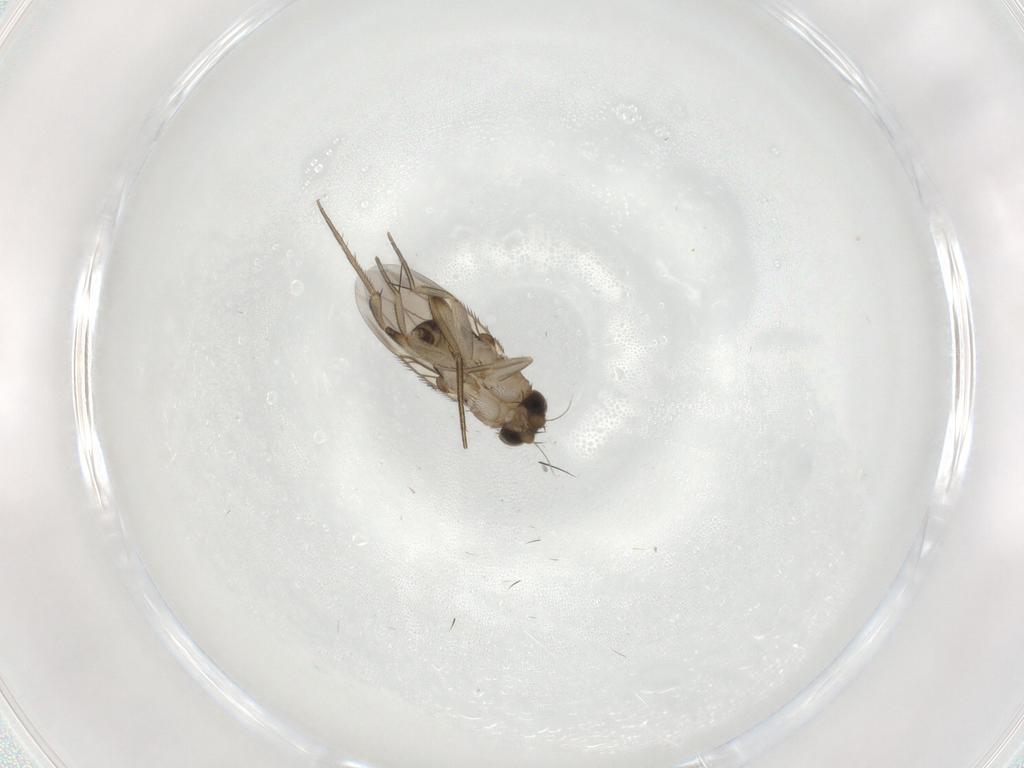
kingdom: Animalia
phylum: Arthropoda
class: Insecta
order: Diptera
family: Phoridae
